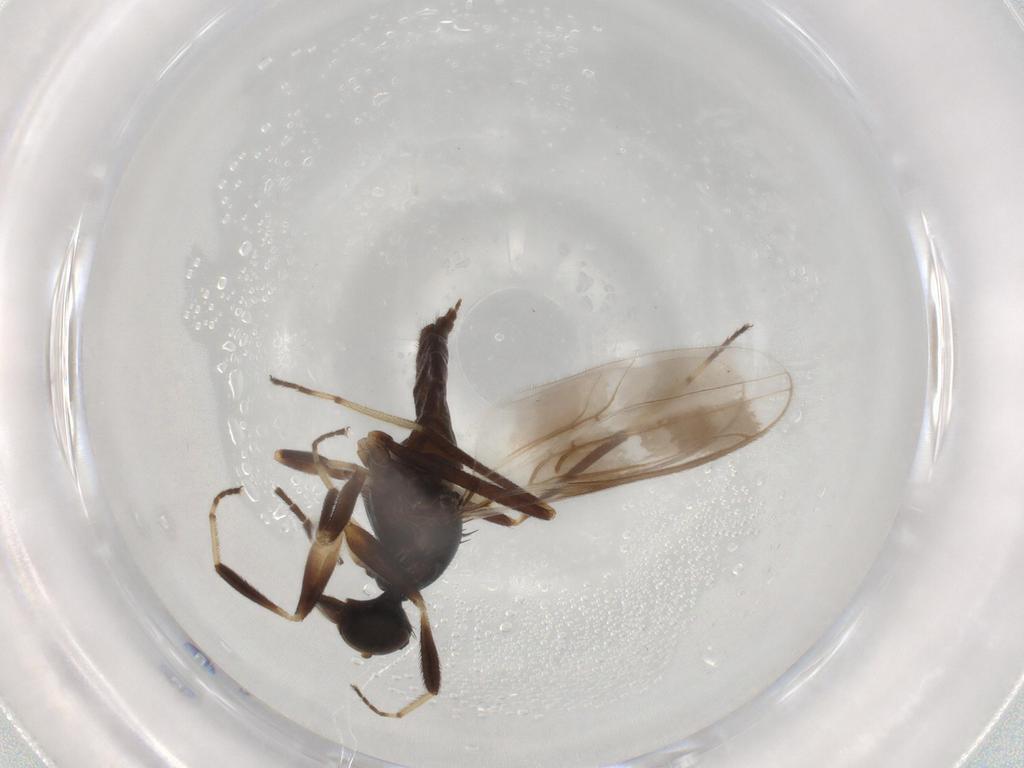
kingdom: Animalia
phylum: Arthropoda
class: Insecta
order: Diptera
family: Hybotidae
